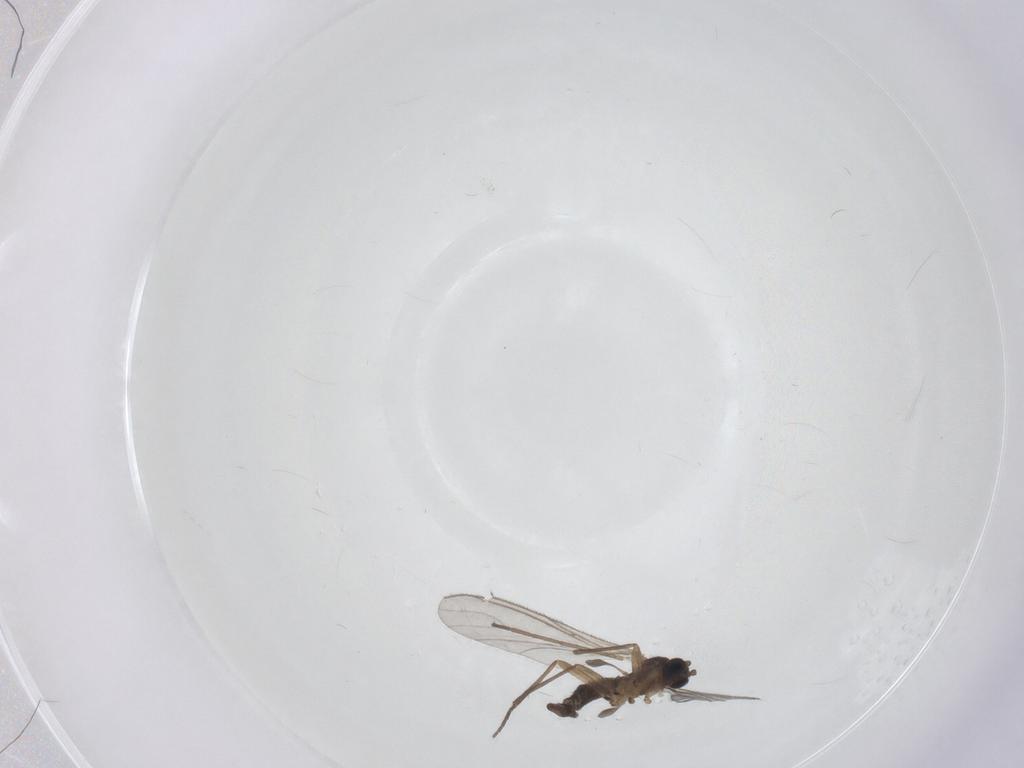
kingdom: Animalia
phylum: Arthropoda
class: Insecta
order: Diptera
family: Cecidomyiidae
